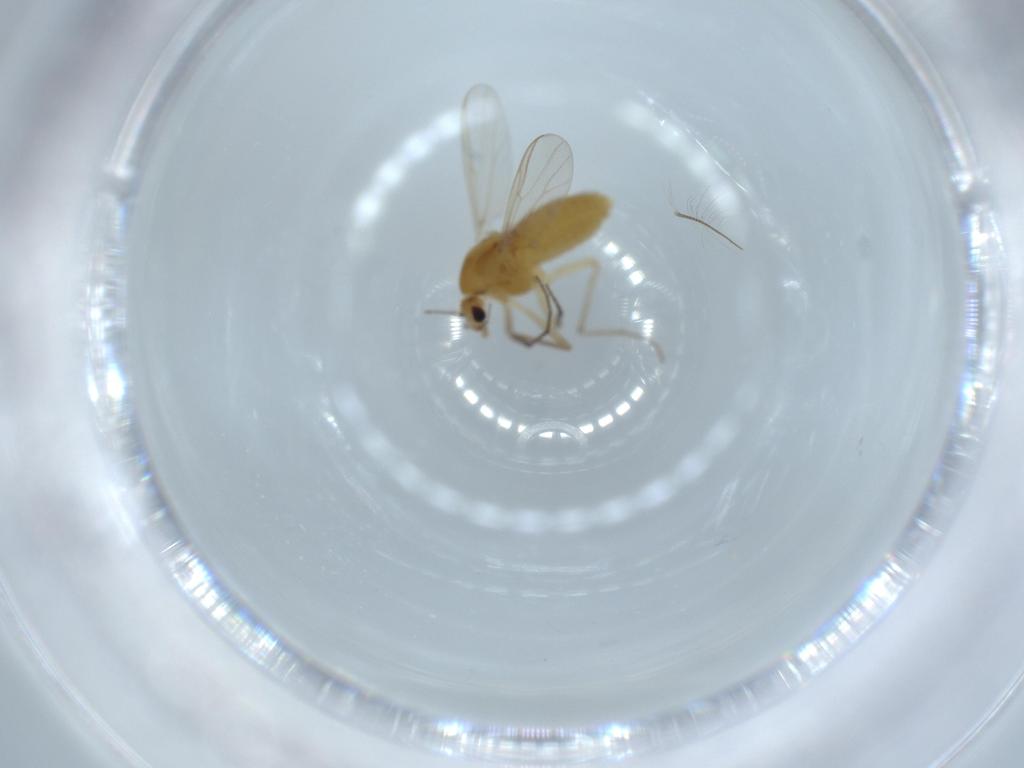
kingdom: Animalia
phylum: Arthropoda
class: Insecta
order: Diptera
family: Chironomidae
